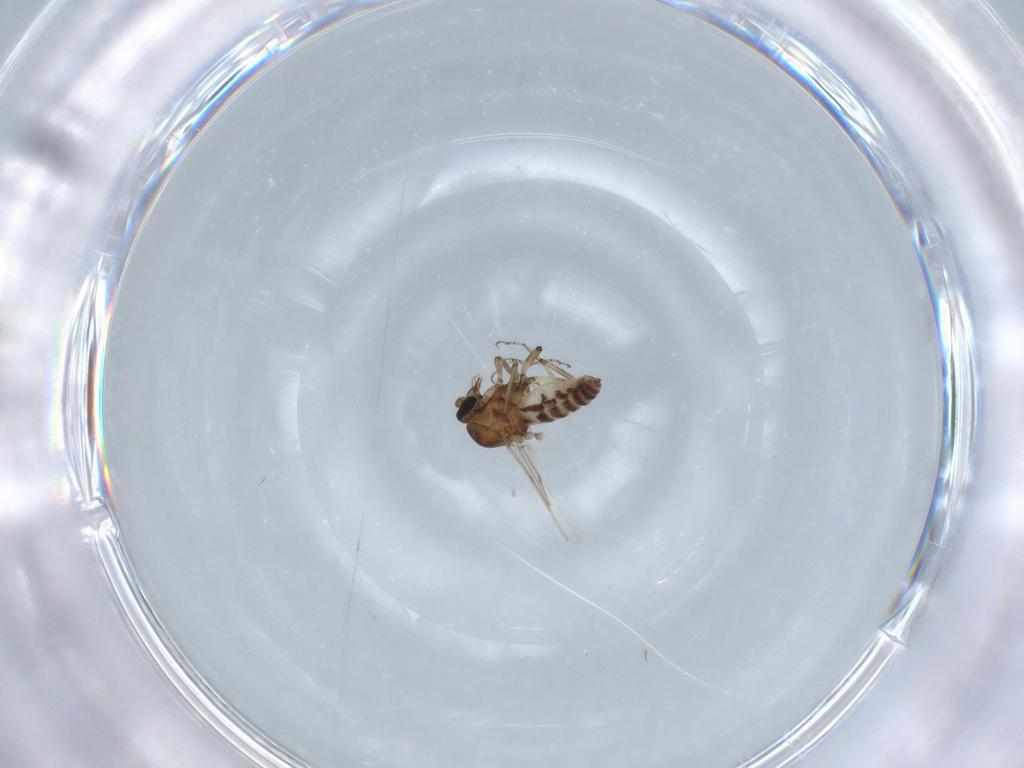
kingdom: Animalia
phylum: Arthropoda
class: Insecta
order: Diptera
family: Ceratopogonidae
